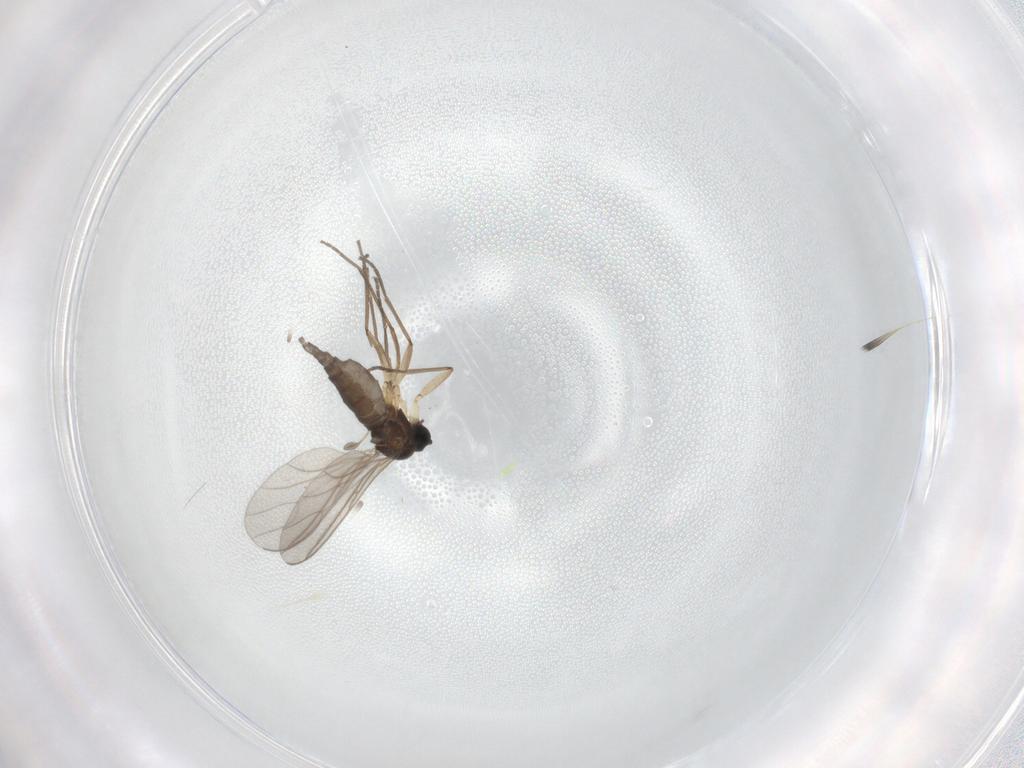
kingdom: Animalia
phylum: Arthropoda
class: Insecta
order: Diptera
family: Sciaridae
